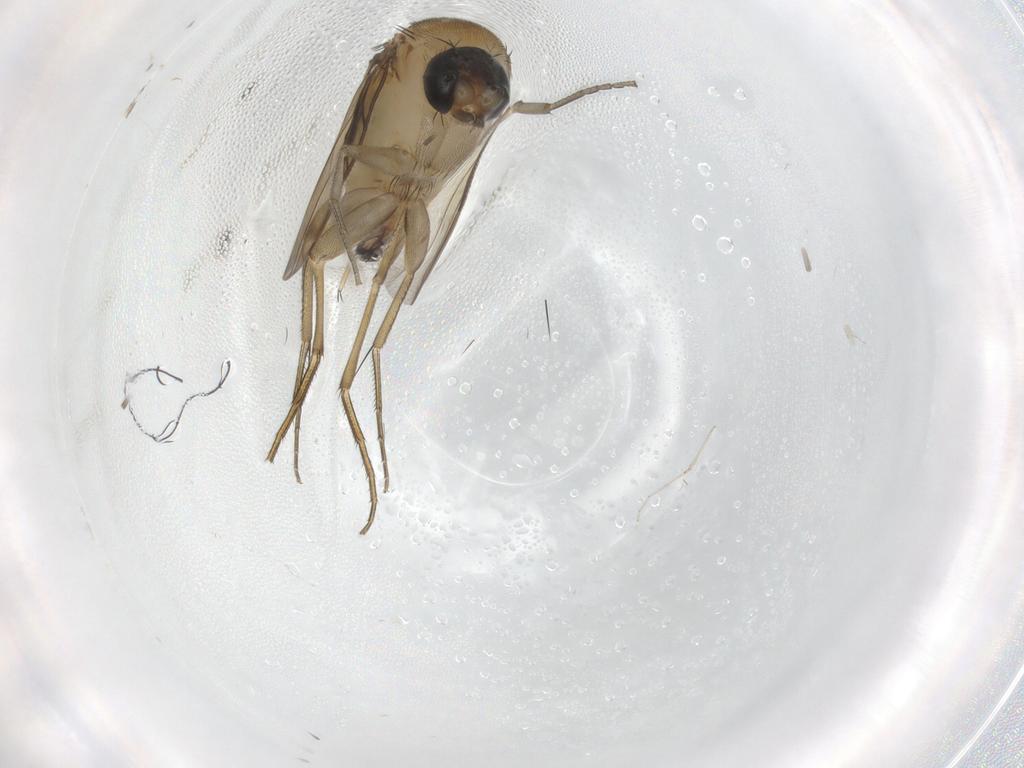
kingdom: Animalia
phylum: Arthropoda
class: Insecta
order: Diptera
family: Phoridae
